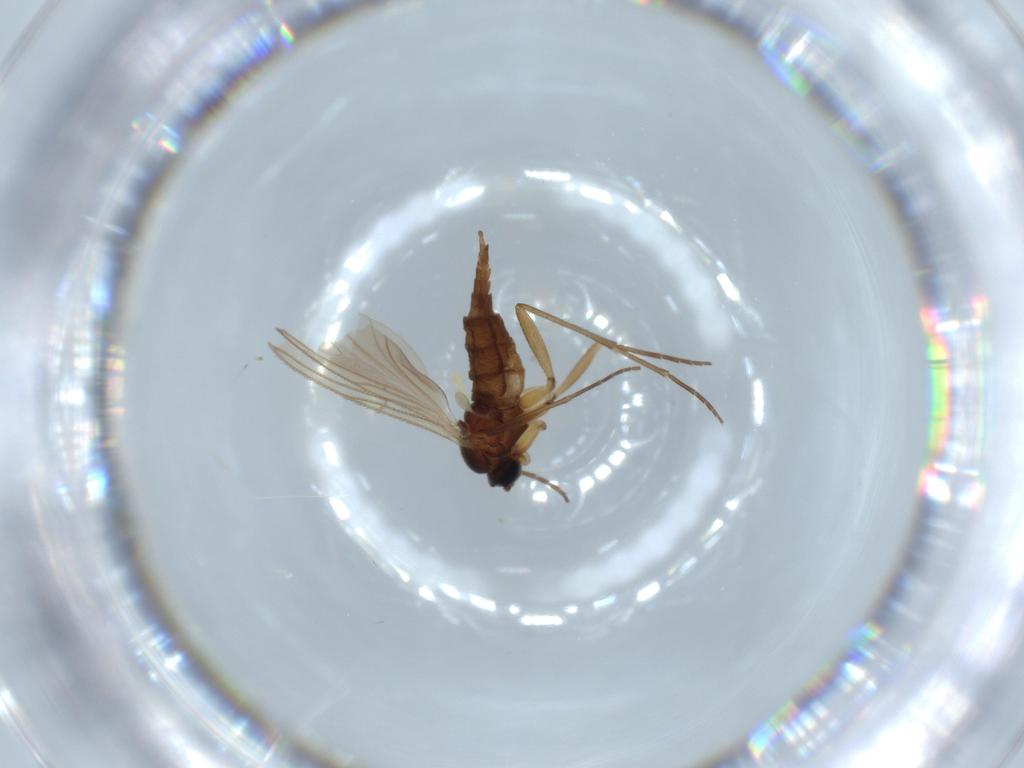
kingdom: Animalia
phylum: Arthropoda
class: Insecta
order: Diptera
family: Sciaridae
